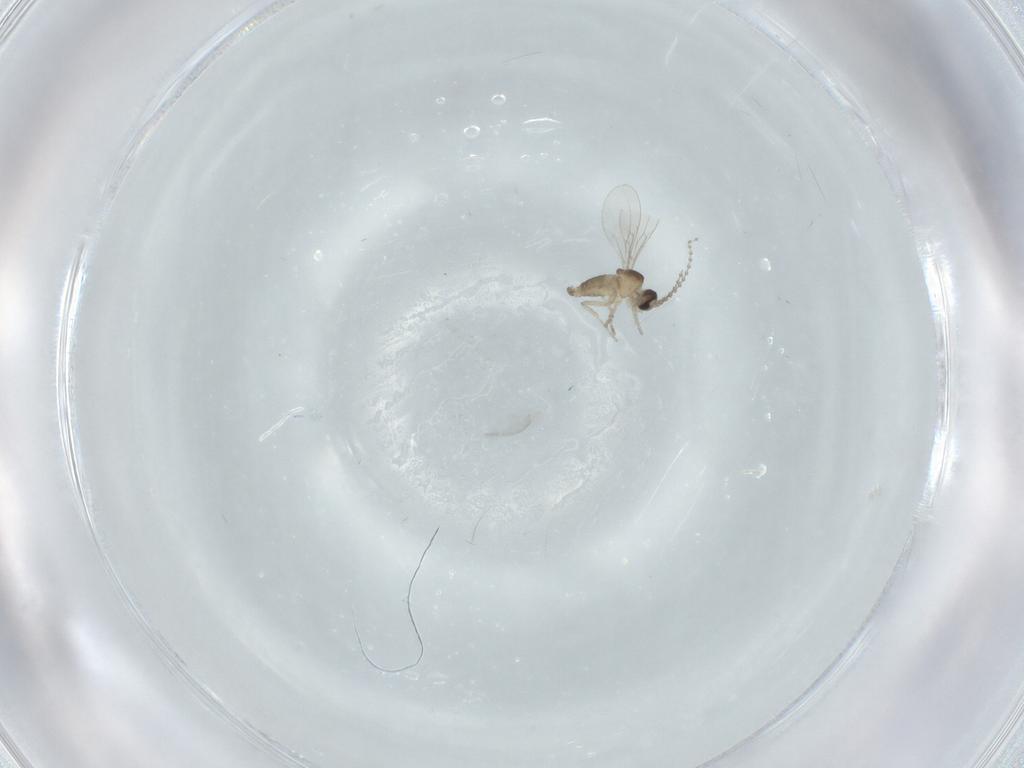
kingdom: Animalia
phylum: Arthropoda
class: Insecta
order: Diptera
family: Cecidomyiidae
